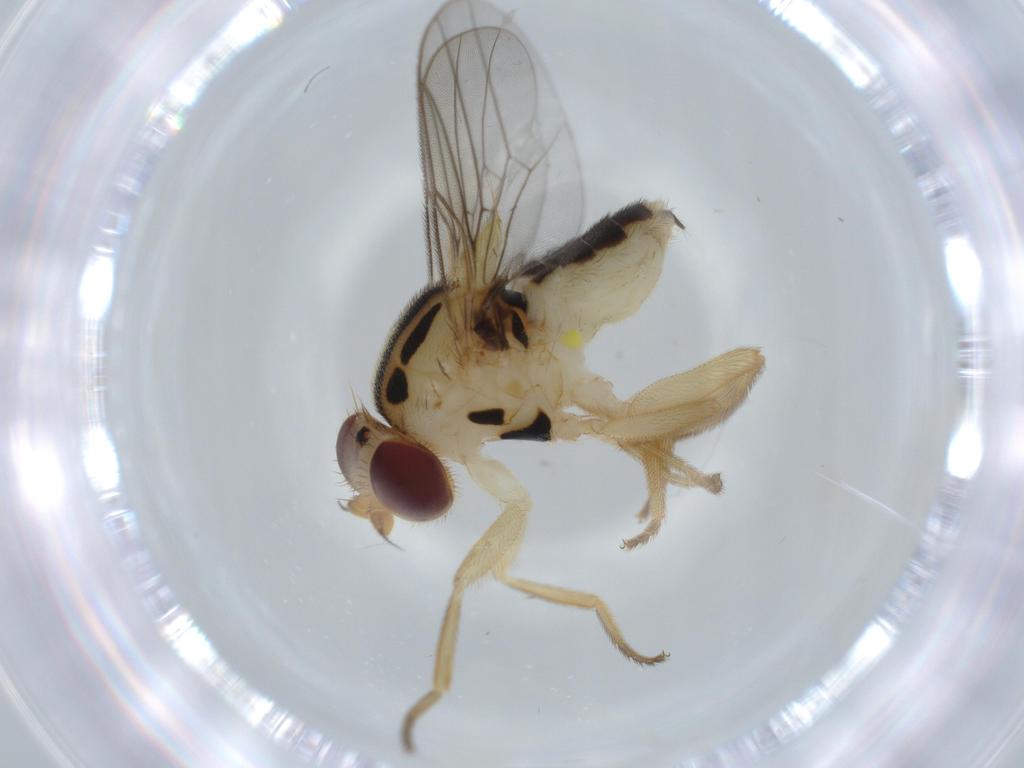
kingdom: Animalia
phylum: Arthropoda
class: Insecta
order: Diptera
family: Chloropidae
